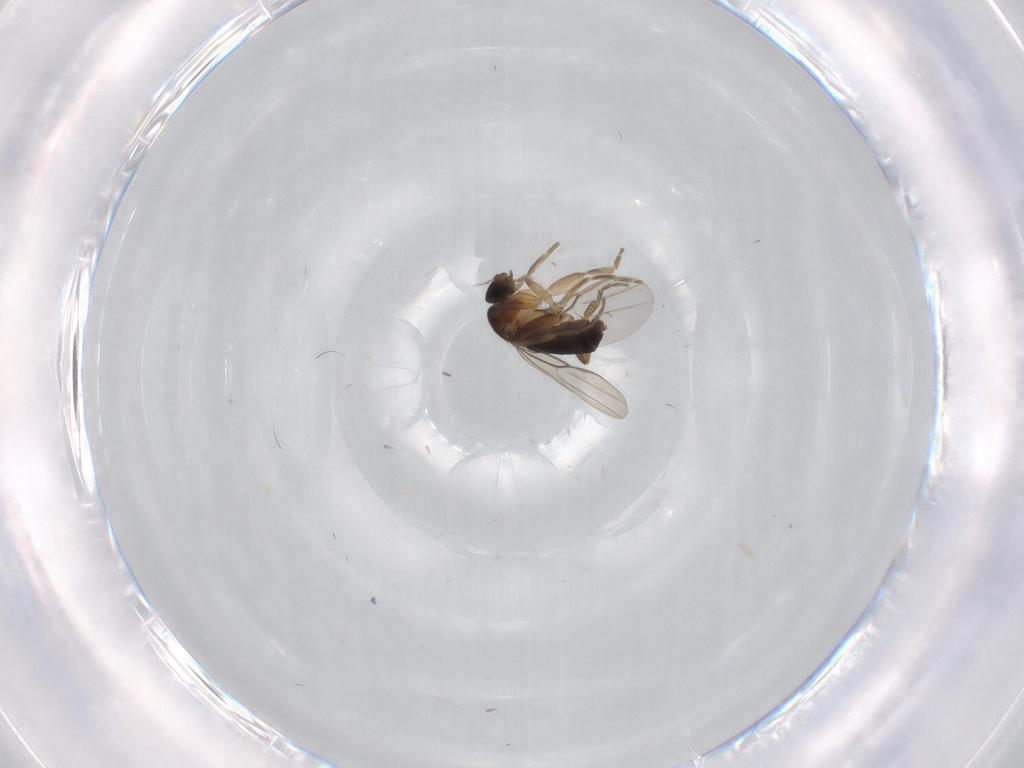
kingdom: Animalia
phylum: Arthropoda
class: Insecta
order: Diptera
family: Phoridae
